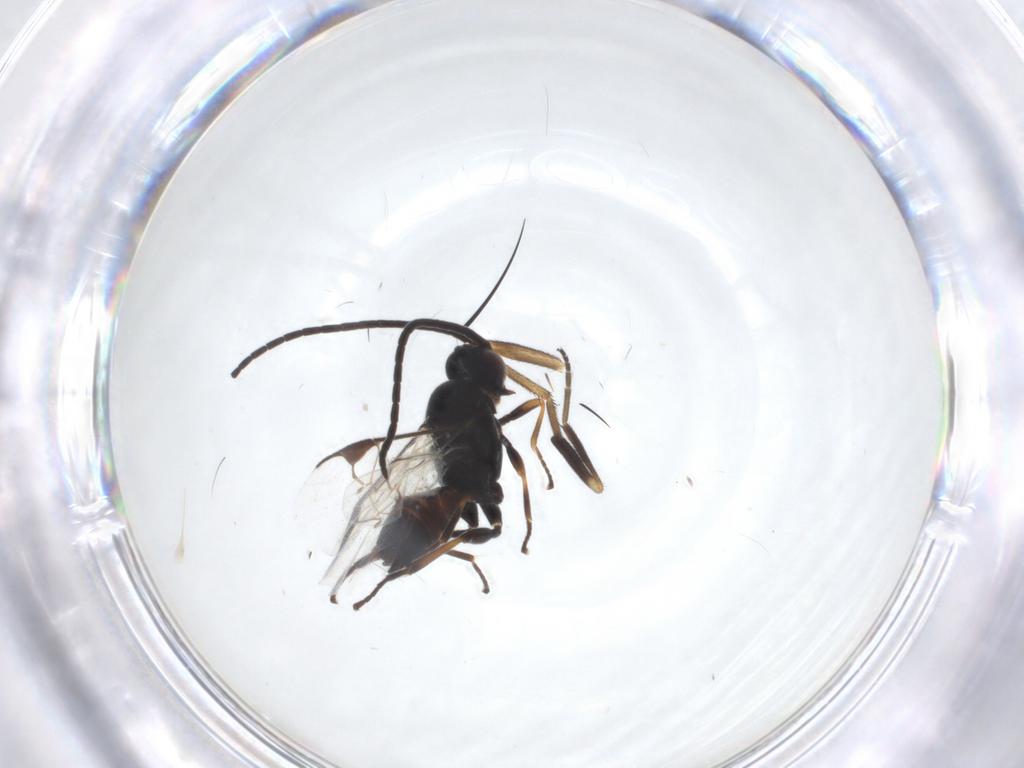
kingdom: Animalia
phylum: Arthropoda
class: Insecta
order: Hymenoptera
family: Braconidae
